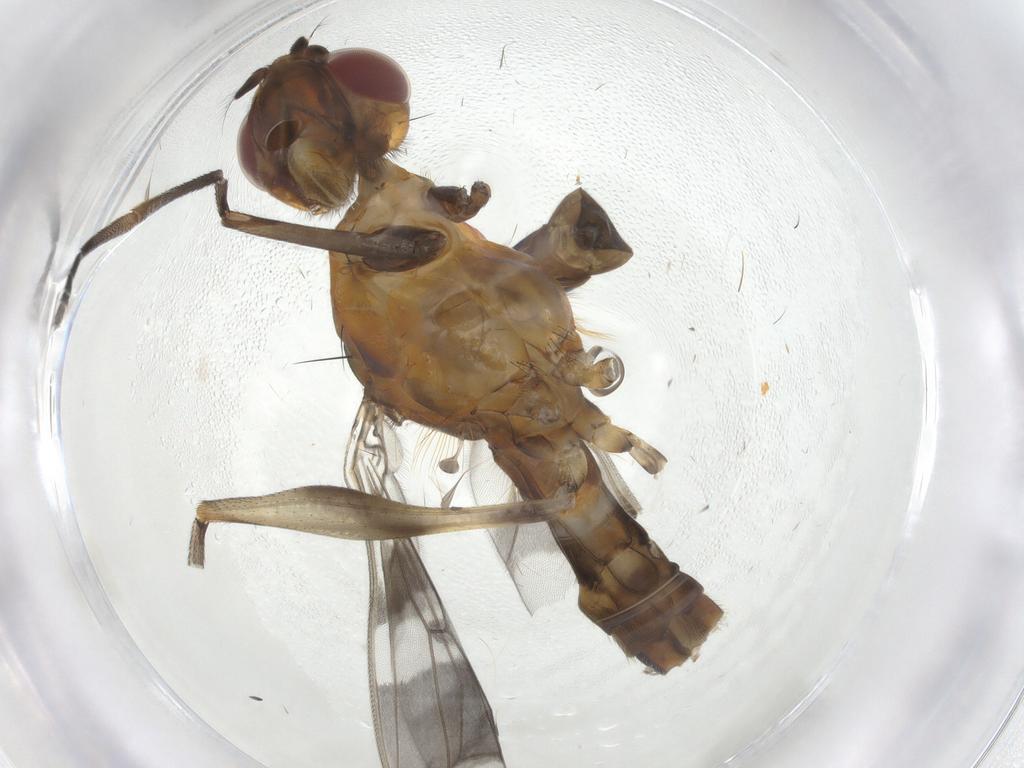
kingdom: Animalia
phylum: Arthropoda
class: Insecta
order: Diptera
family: Micropezidae
